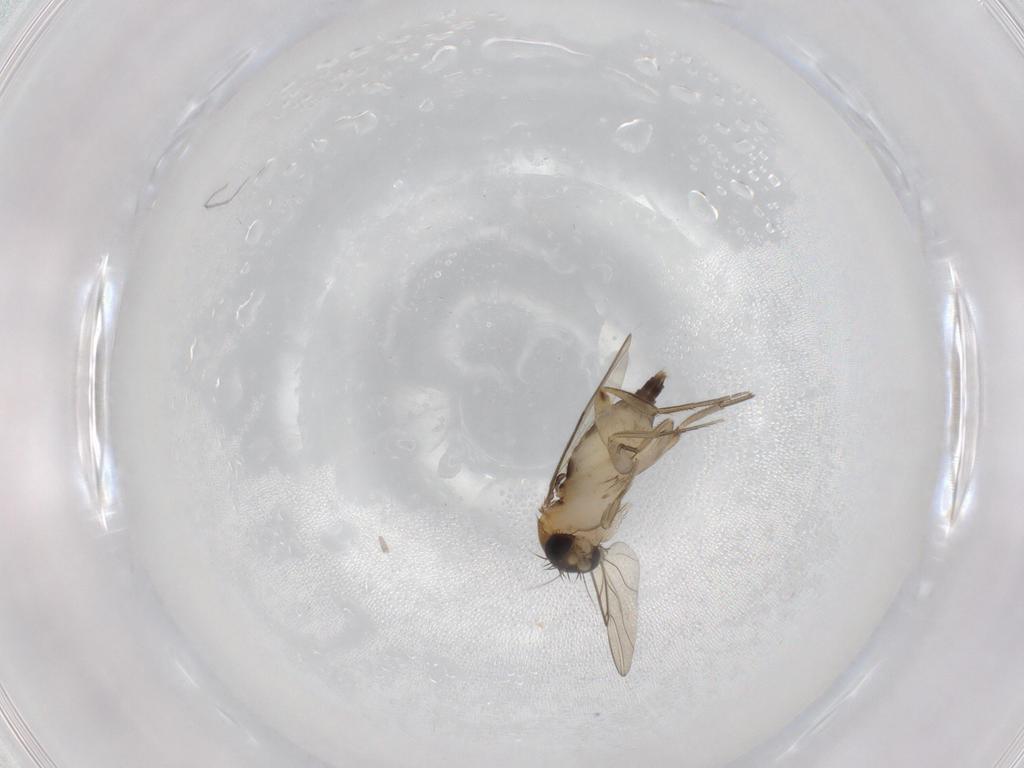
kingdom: Animalia
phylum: Arthropoda
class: Insecta
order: Diptera
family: Phoridae
